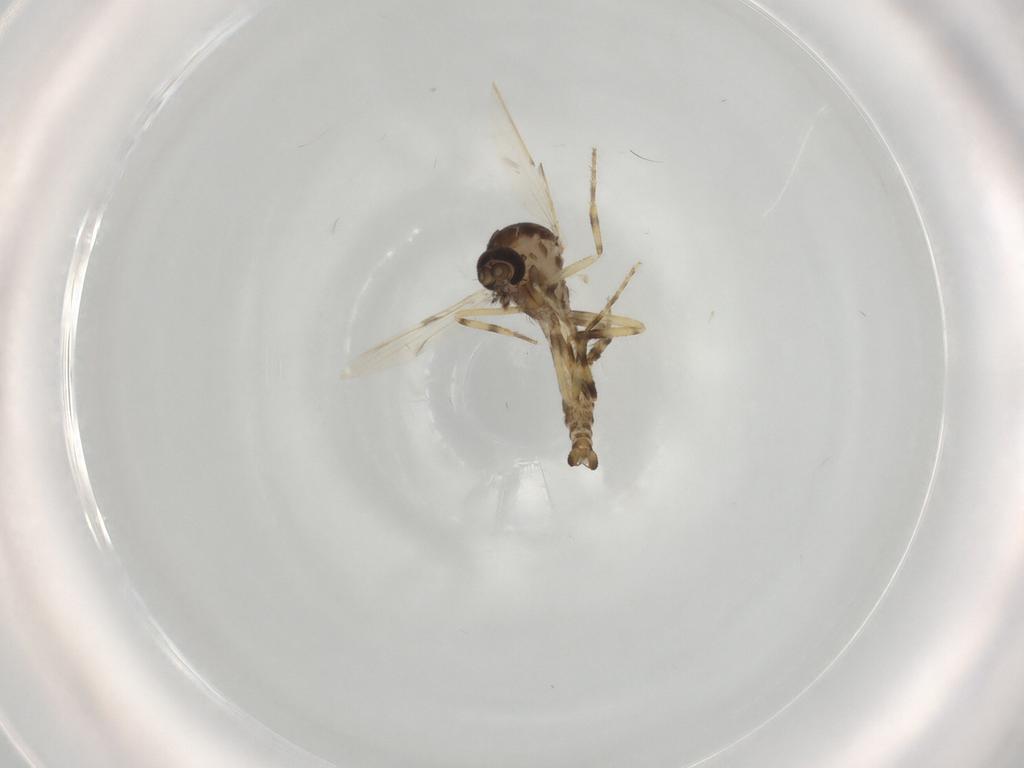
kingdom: Animalia
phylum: Arthropoda
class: Insecta
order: Diptera
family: Ceratopogonidae
